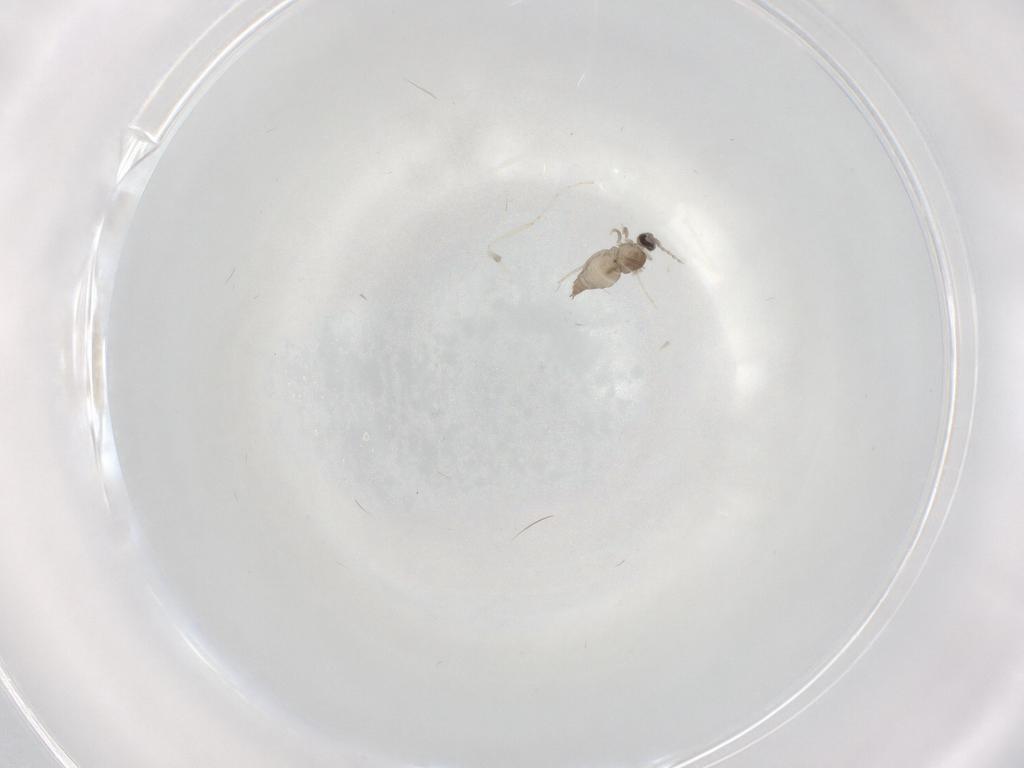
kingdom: Animalia
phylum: Arthropoda
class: Insecta
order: Diptera
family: Cecidomyiidae
